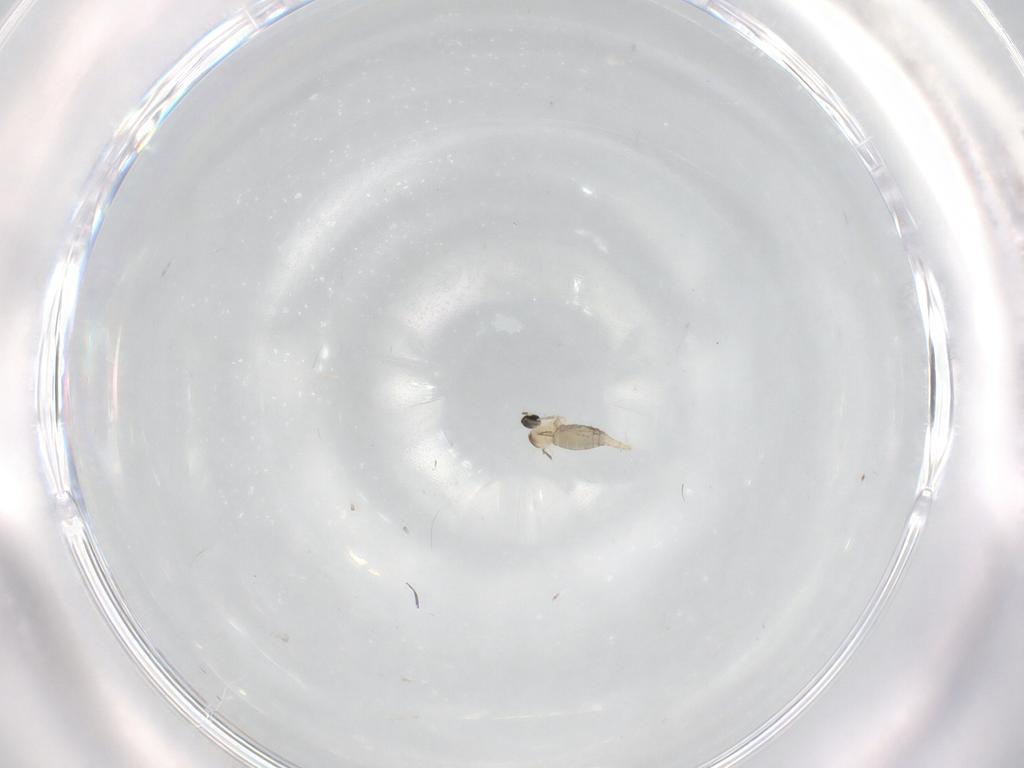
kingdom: Animalia
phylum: Arthropoda
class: Insecta
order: Diptera
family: Cecidomyiidae
